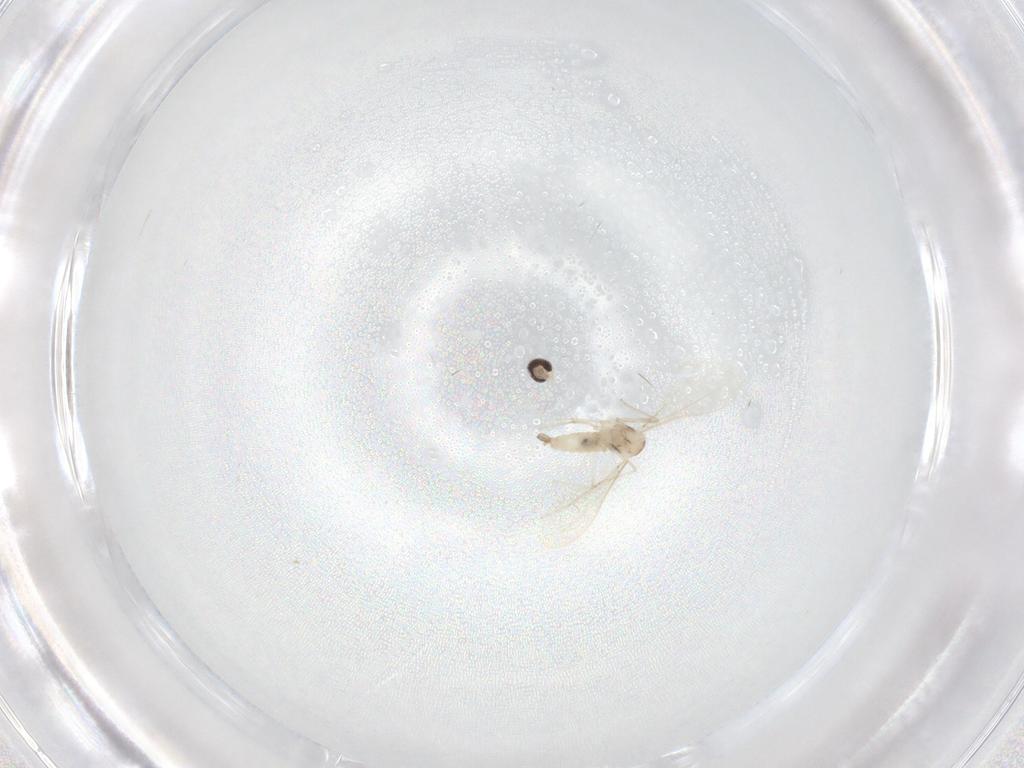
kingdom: Animalia
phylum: Arthropoda
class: Insecta
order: Diptera
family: Cecidomyiidae
